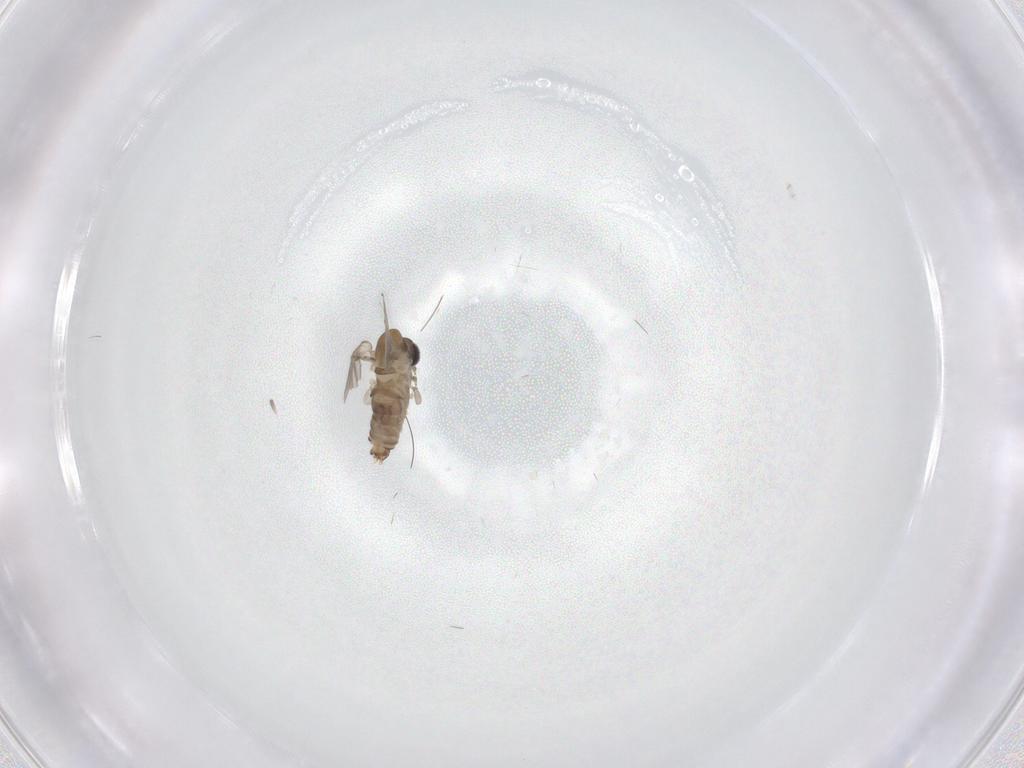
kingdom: Animalia
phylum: Arthropoda
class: Insecta
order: Diptera
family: Cecidomyiidae
